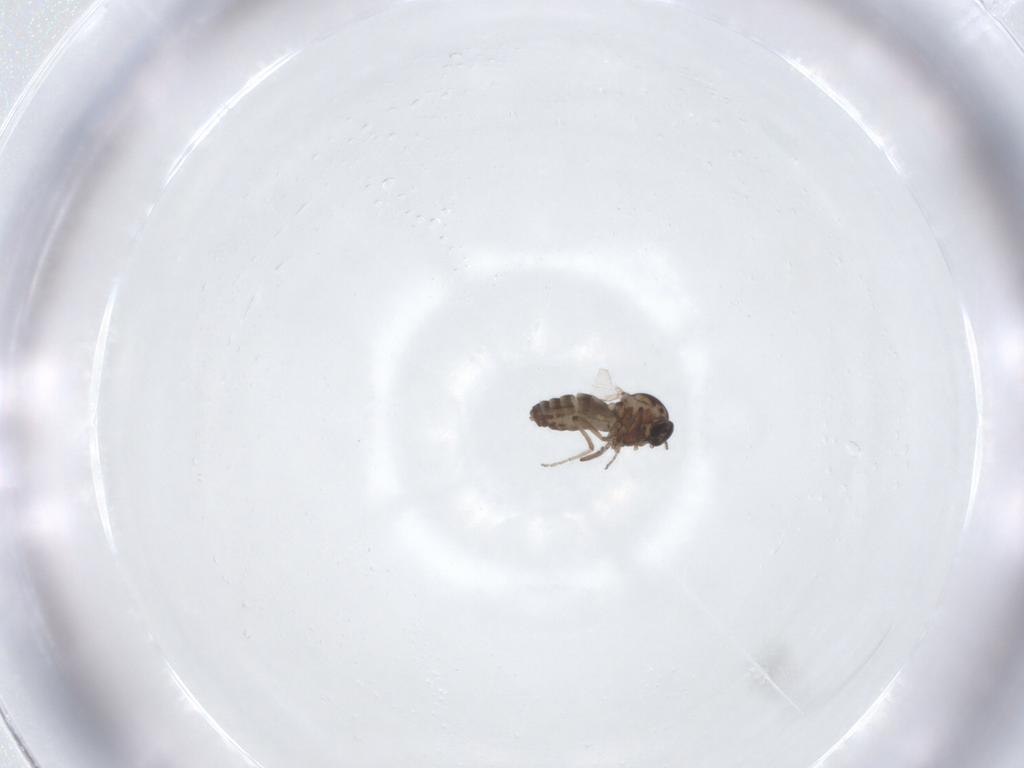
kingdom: Animalia
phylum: Arthropoda
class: Insecta
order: Diptera
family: Ceratopogonidae
